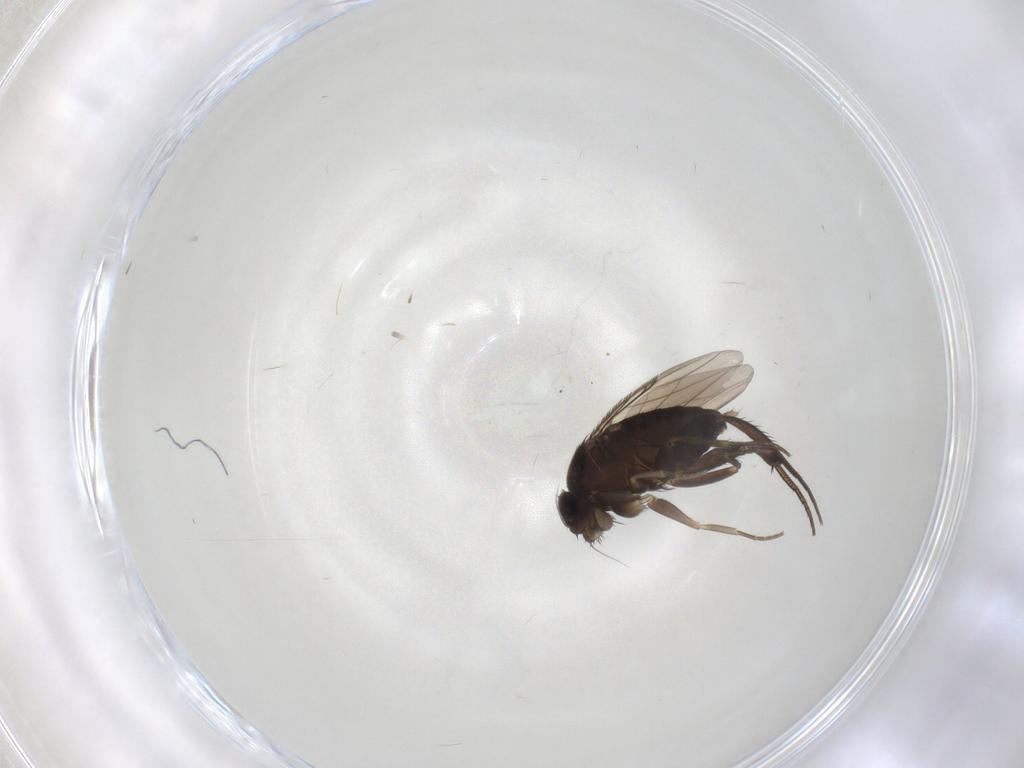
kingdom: Animalia
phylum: Arthropoda
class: Insecta
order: Diptera
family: Phoridae
